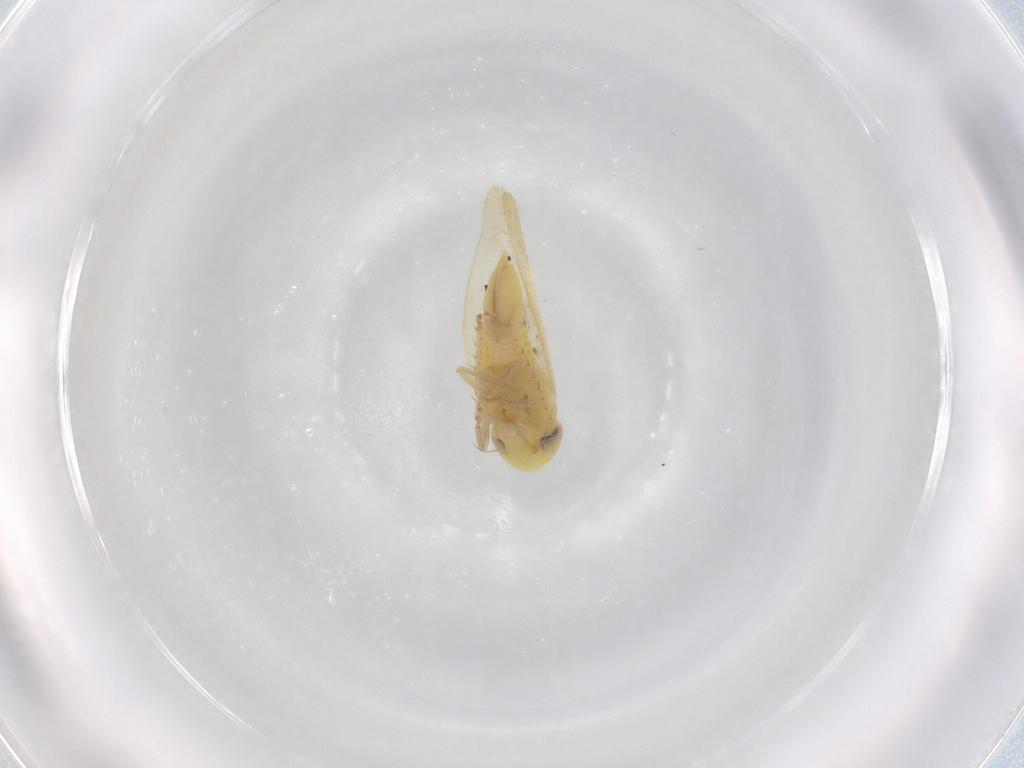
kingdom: Animalia
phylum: Arthropoda
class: Insecta
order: Hemiptera
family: Cicadellidae
